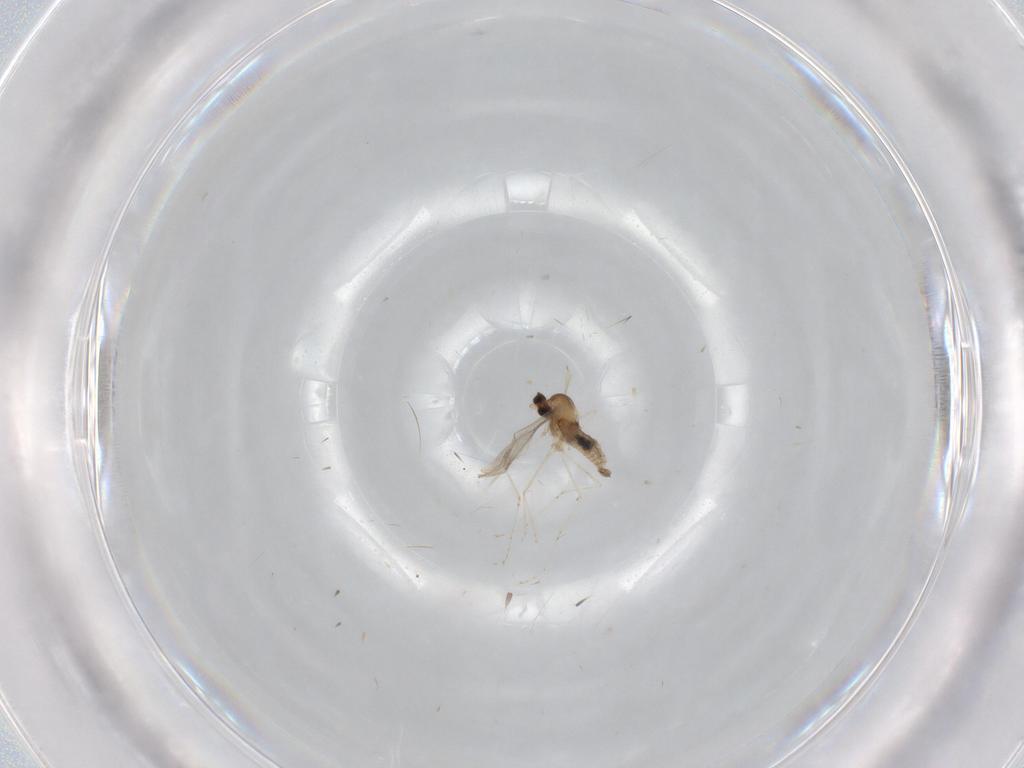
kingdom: Animalia
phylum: Arthropoda
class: Insecta
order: Diptera
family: Cecidomyiidae
